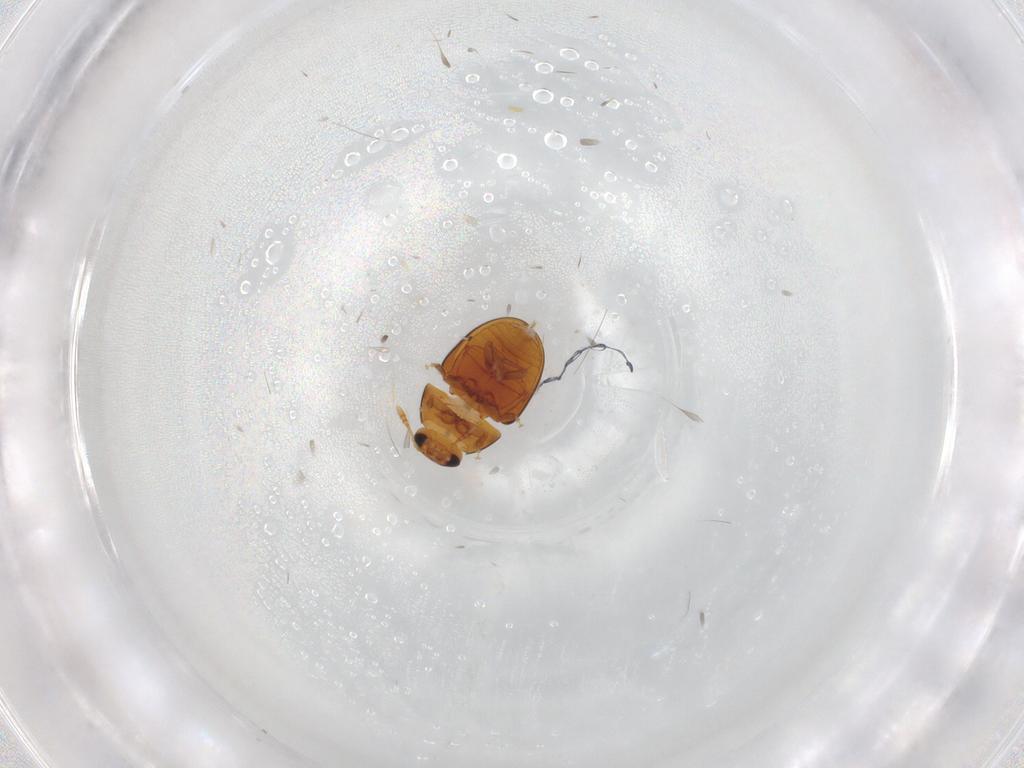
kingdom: Animalia
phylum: Arthropoda
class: Insecta
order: Coleoptera
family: Phalacridae
